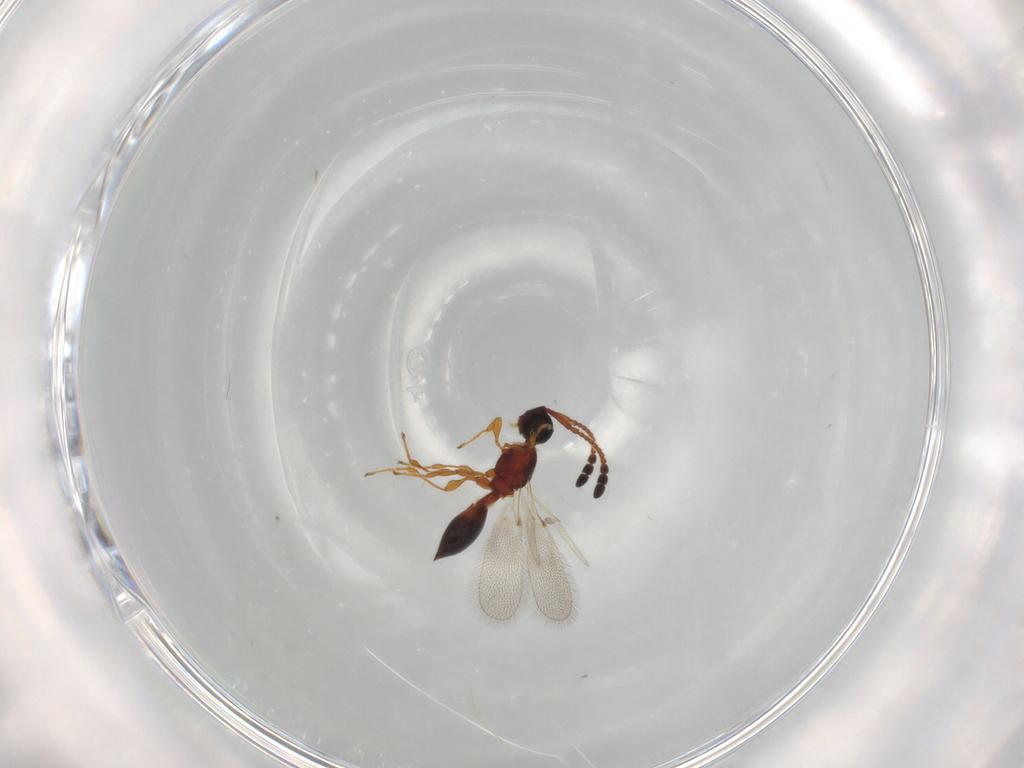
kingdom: Animalia
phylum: Arthropoda
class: Insecta
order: Hymenoptera
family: Diapriidae
